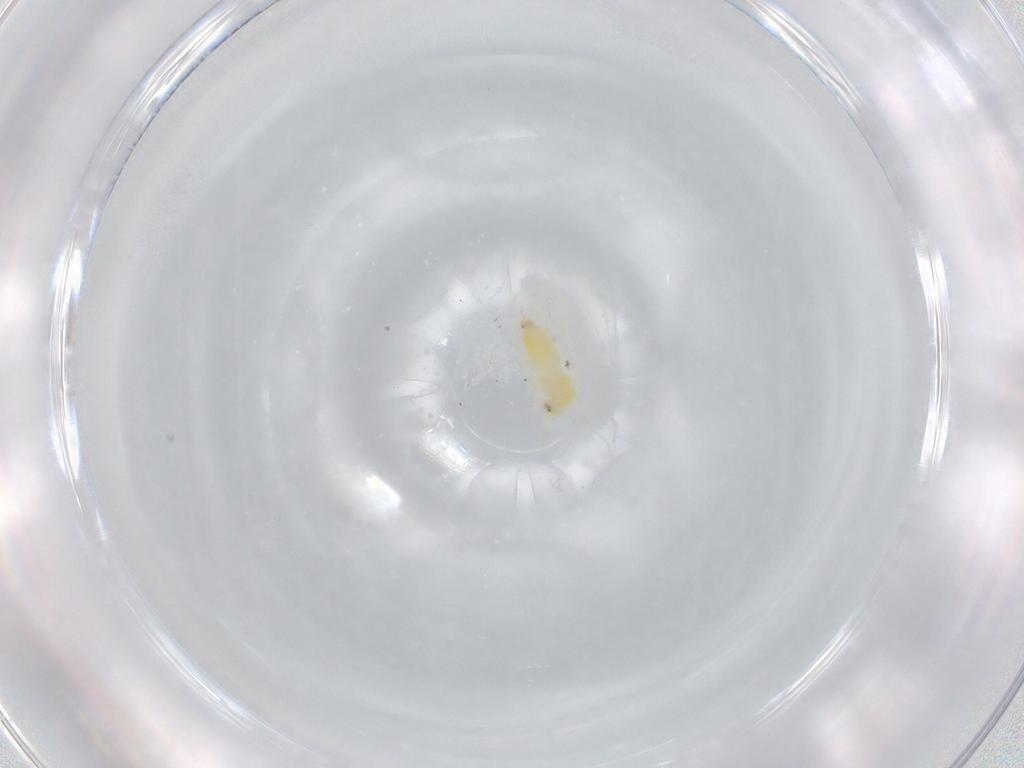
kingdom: Animalia
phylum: Arthropoda
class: Insecta
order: Hemiptera
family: Aleyrodidae
